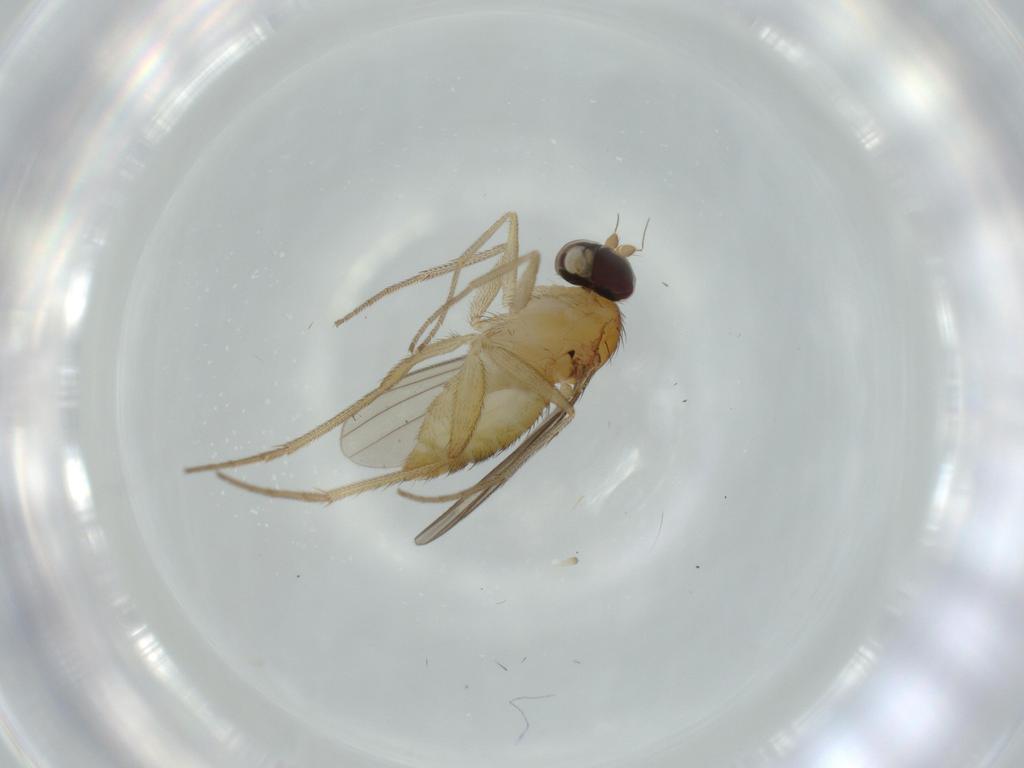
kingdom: Animalia
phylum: Arthropoda
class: Insecta
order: Diptera
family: Dolichopodidae
